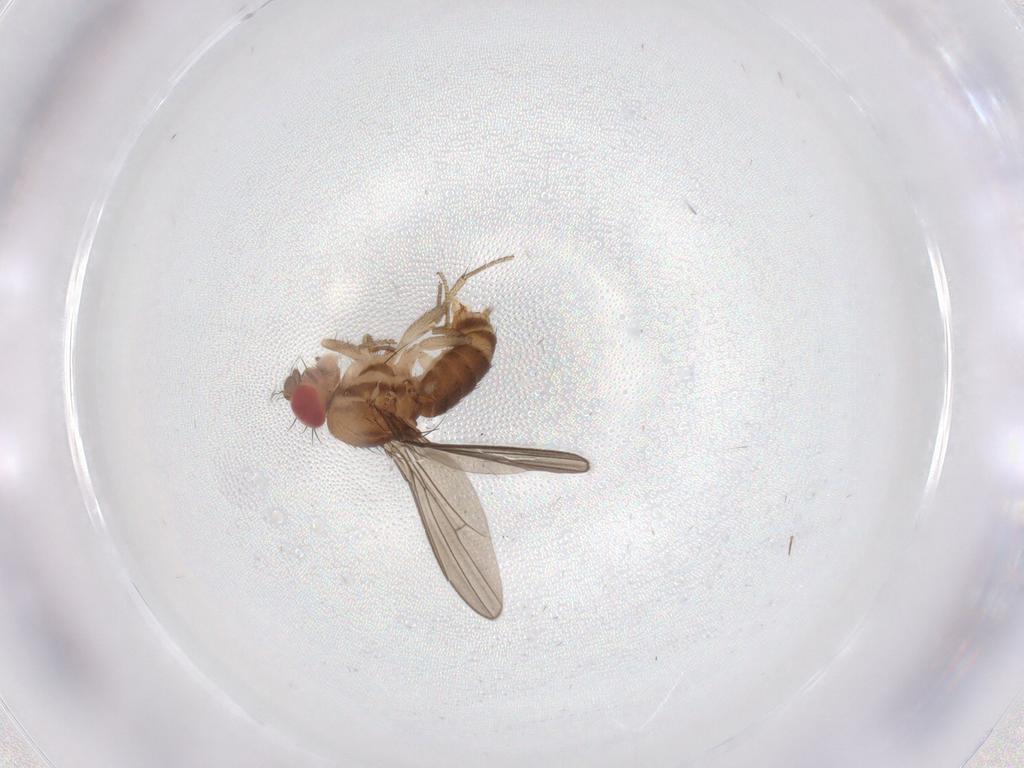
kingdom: Animalia
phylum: Arthropoda
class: Insecta
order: Diptera
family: Drosophilidae
